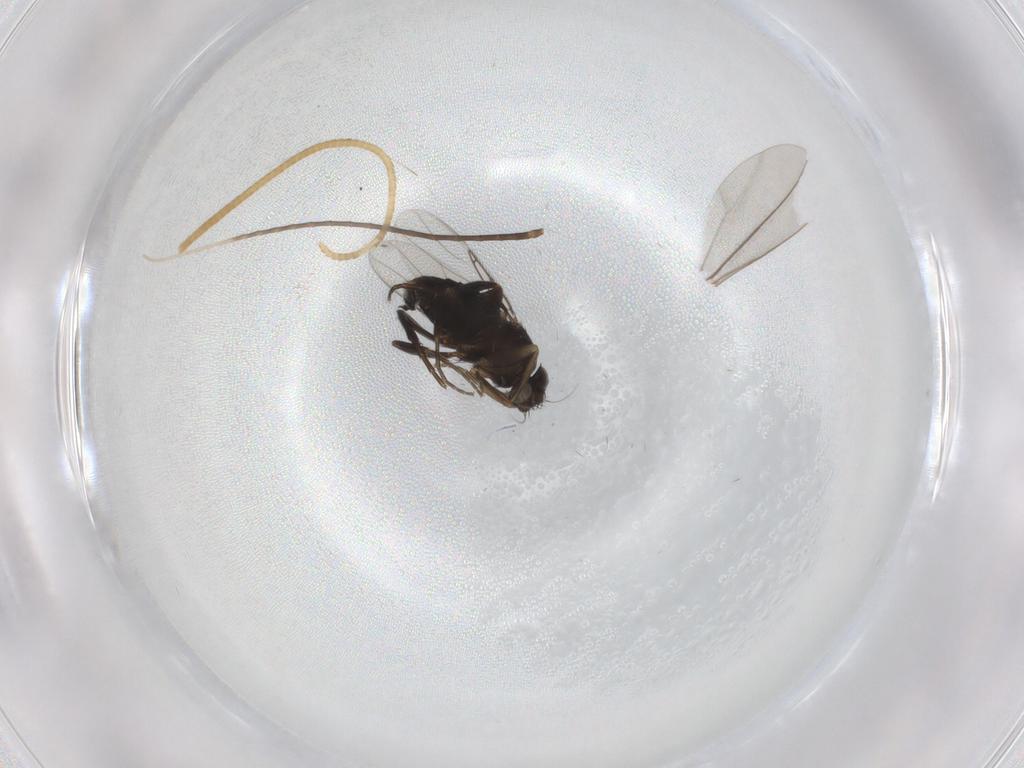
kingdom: Animalia
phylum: Arthropoda
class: Insecta
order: Diptera
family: Phoridae
